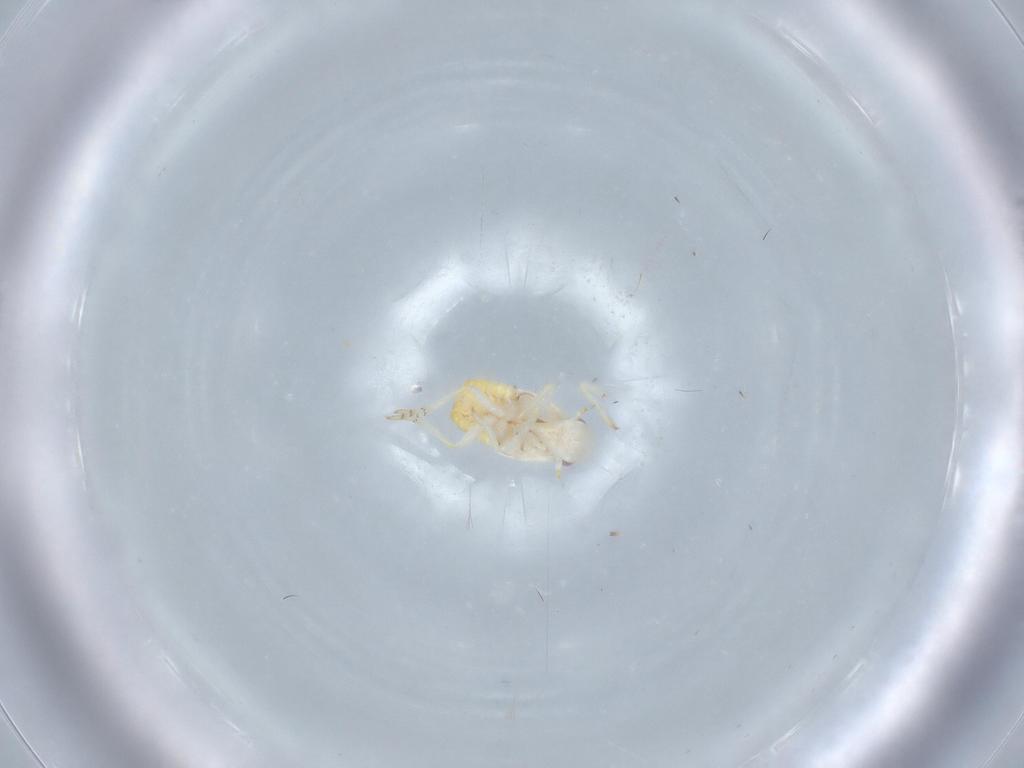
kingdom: Animalia
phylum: Arthropoda
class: Insecta
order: Hemiptera
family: Flatidae
